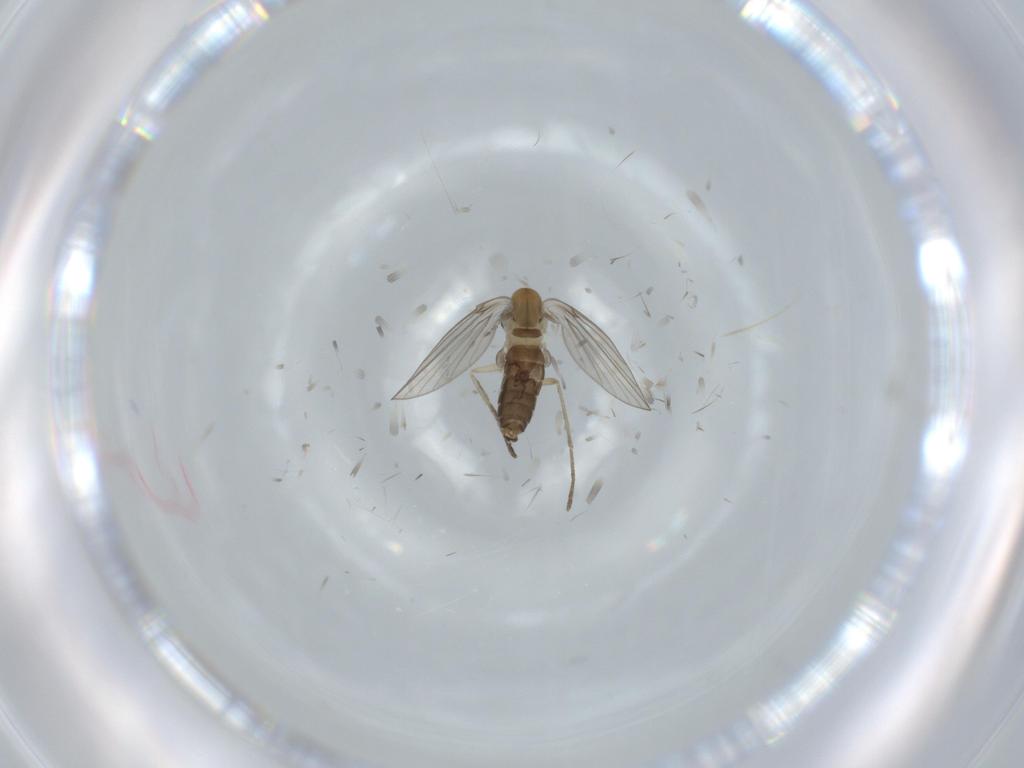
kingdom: Animalia
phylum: Arthropoda
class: Insecta
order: Diptera
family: Psychodidae
